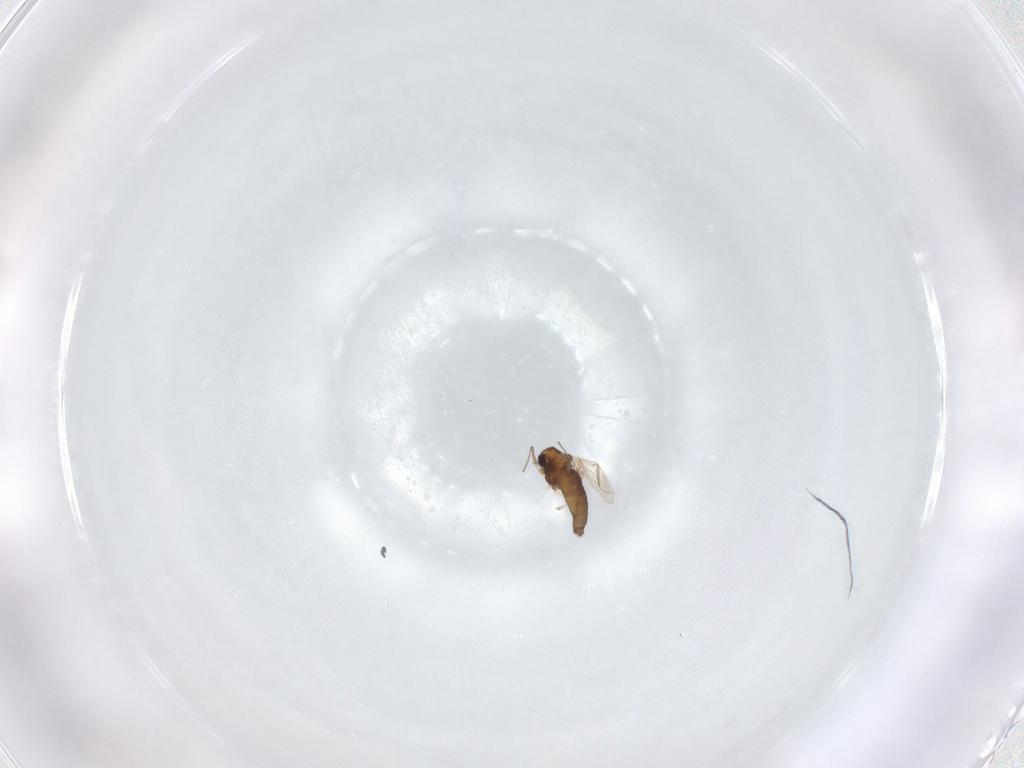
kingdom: Animalia
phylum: Arthropoda
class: Insecta
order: Diptera
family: Chironomidae
